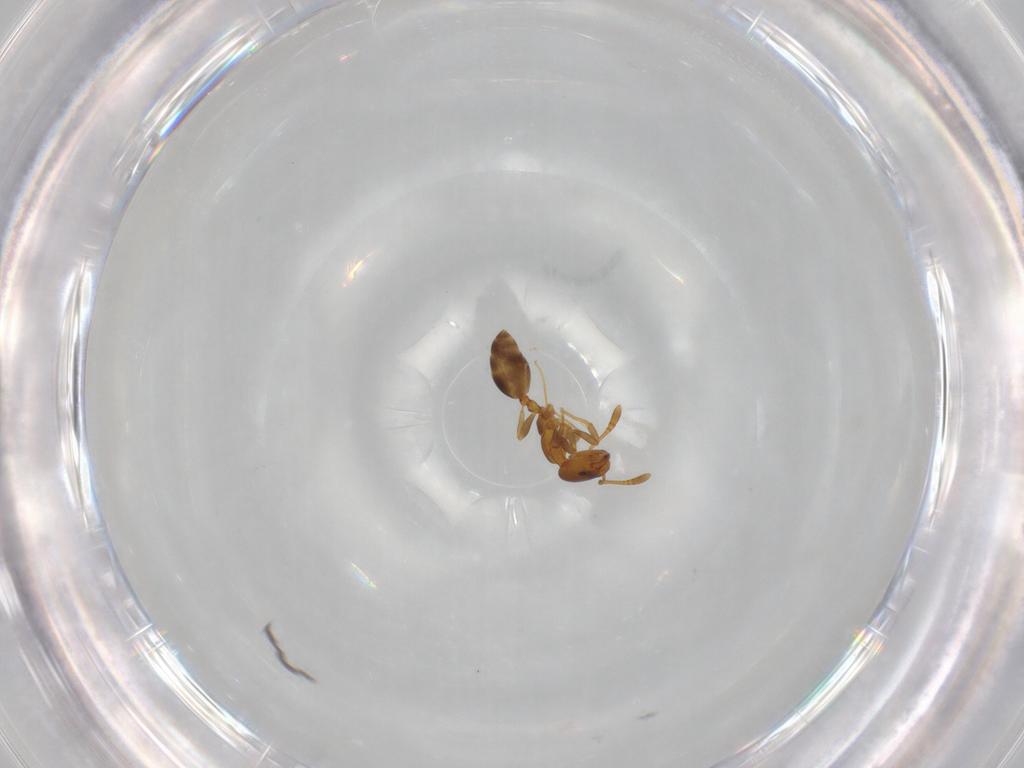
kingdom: Animalia
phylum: Arthropoda
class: Insecta
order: Hymenoptera
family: Formicidae
